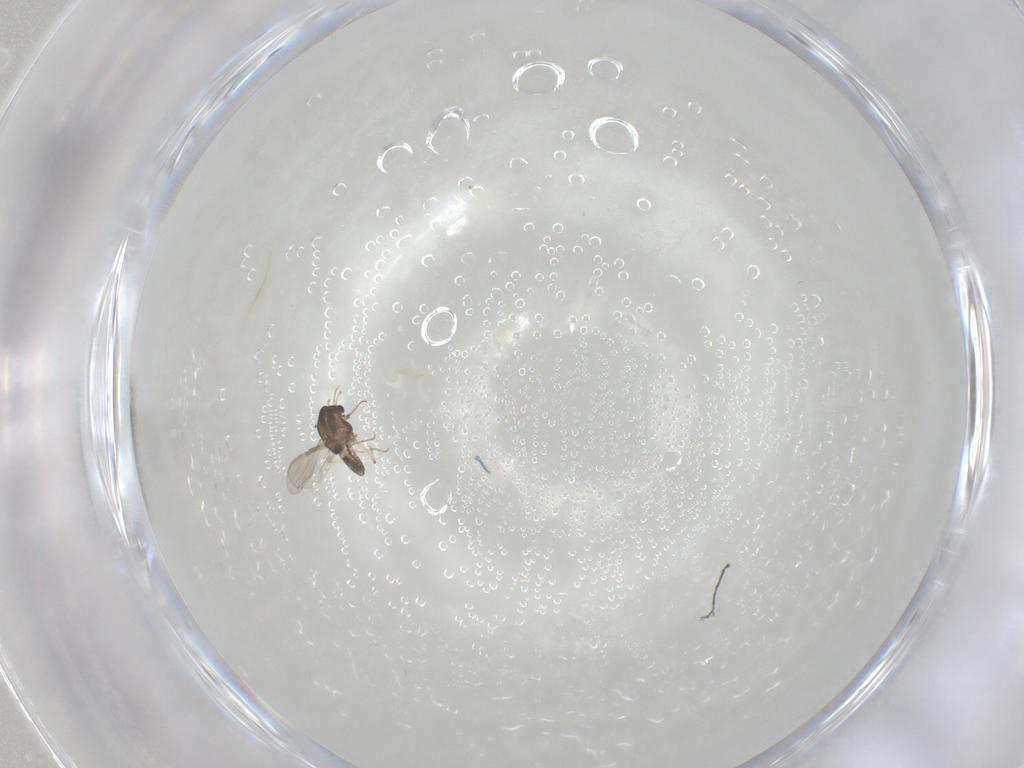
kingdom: Animalia
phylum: Arthropoda
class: Insecta
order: Diptera
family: Chironomidae
